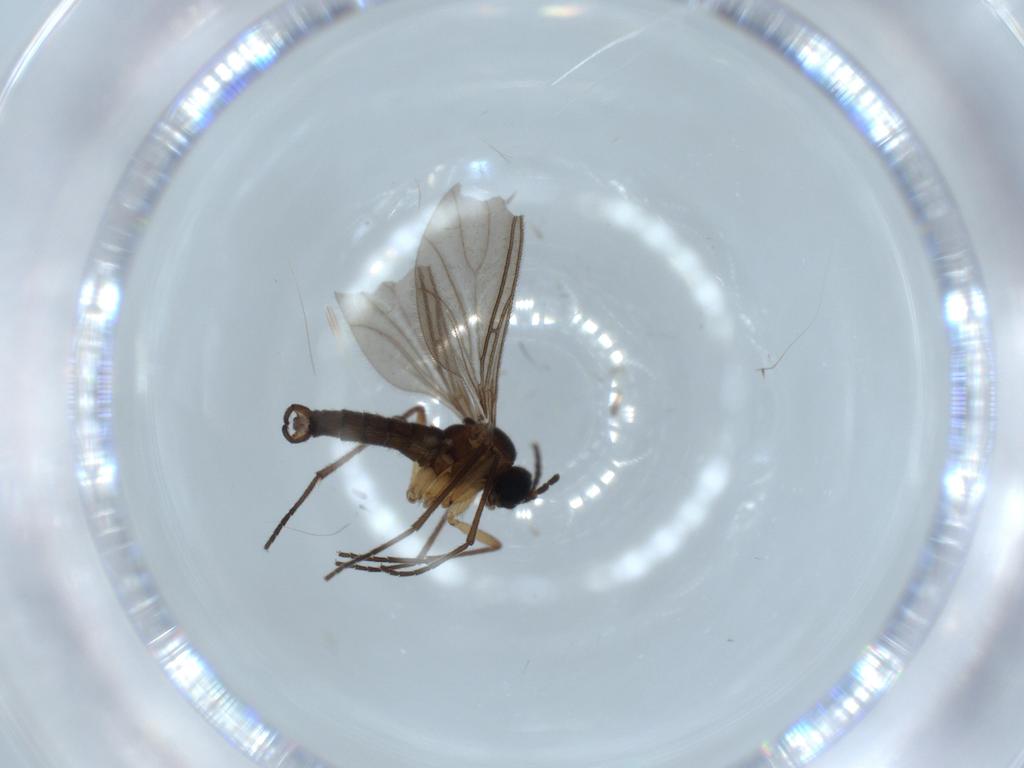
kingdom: Animalia
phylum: Arthropoda
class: Insecta
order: Diptera
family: Sciaridae
